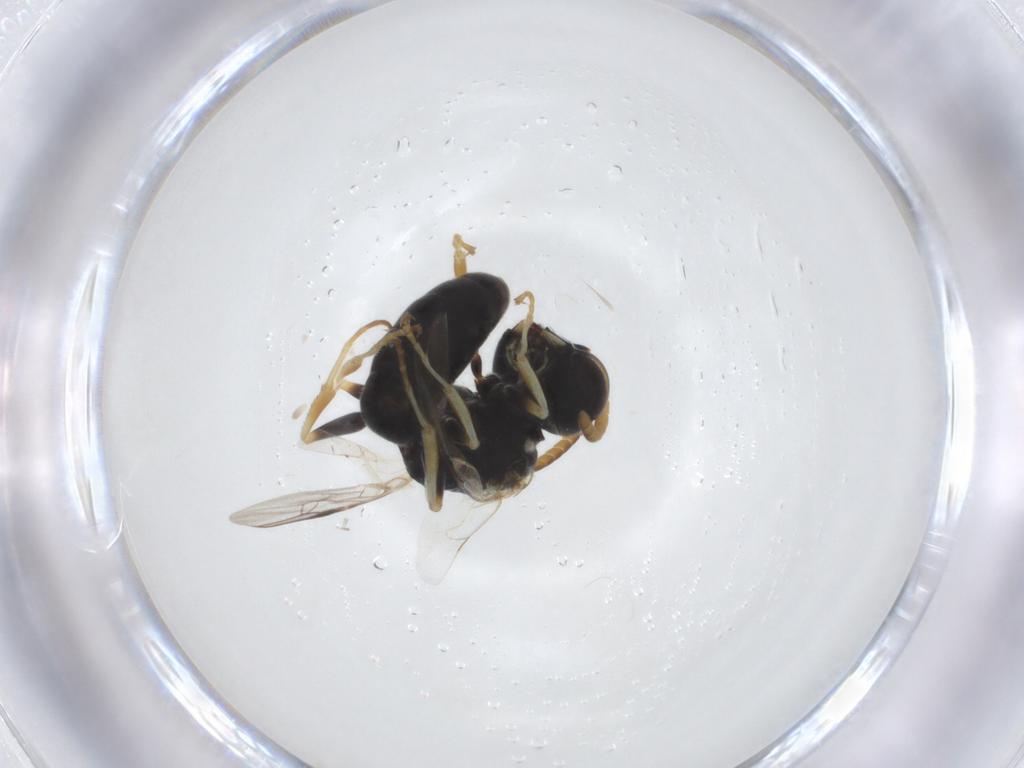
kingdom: Animalia
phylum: Arthropoda
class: Insecta
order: Hymenoptera
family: Pemphredonidae
